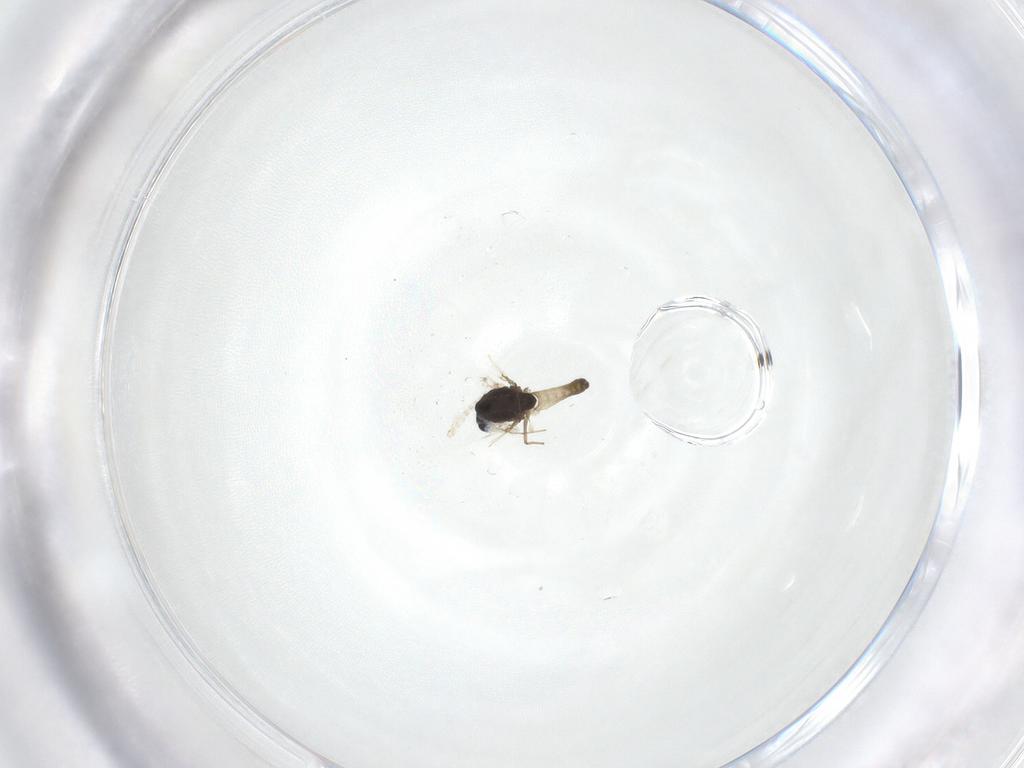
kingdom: Animalia
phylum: Arthropoda
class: Insecta
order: Diptera
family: Chironomidae
